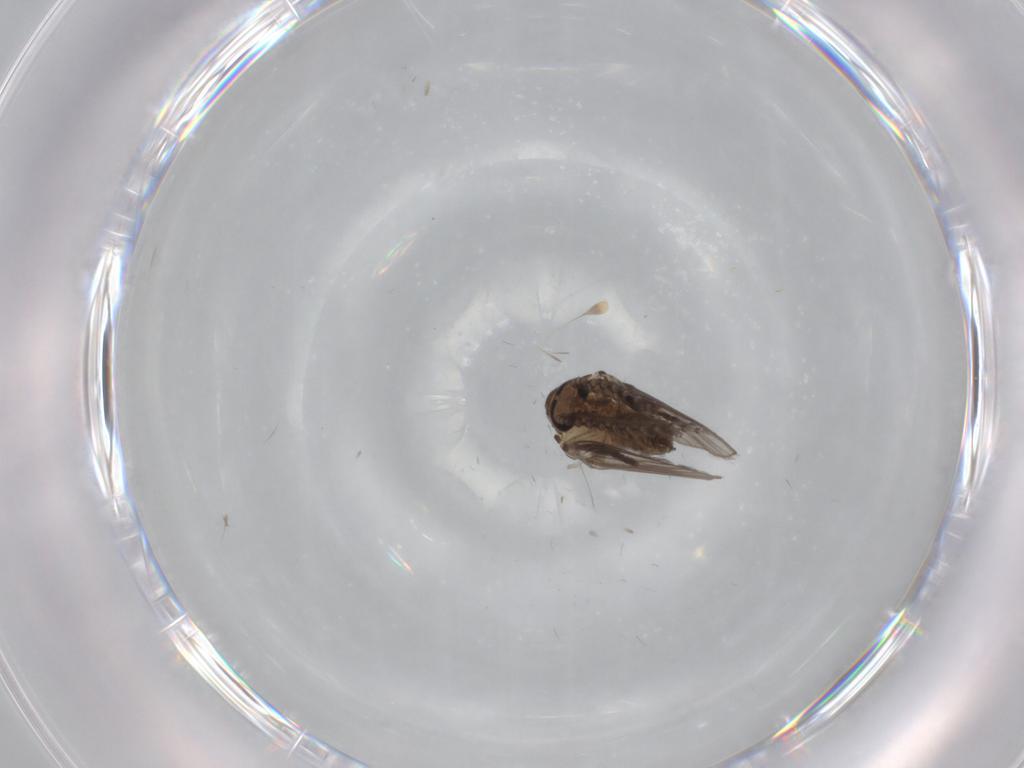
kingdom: Animalia
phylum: Arthropoda
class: Insecta
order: Diptera
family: Psychodidae
